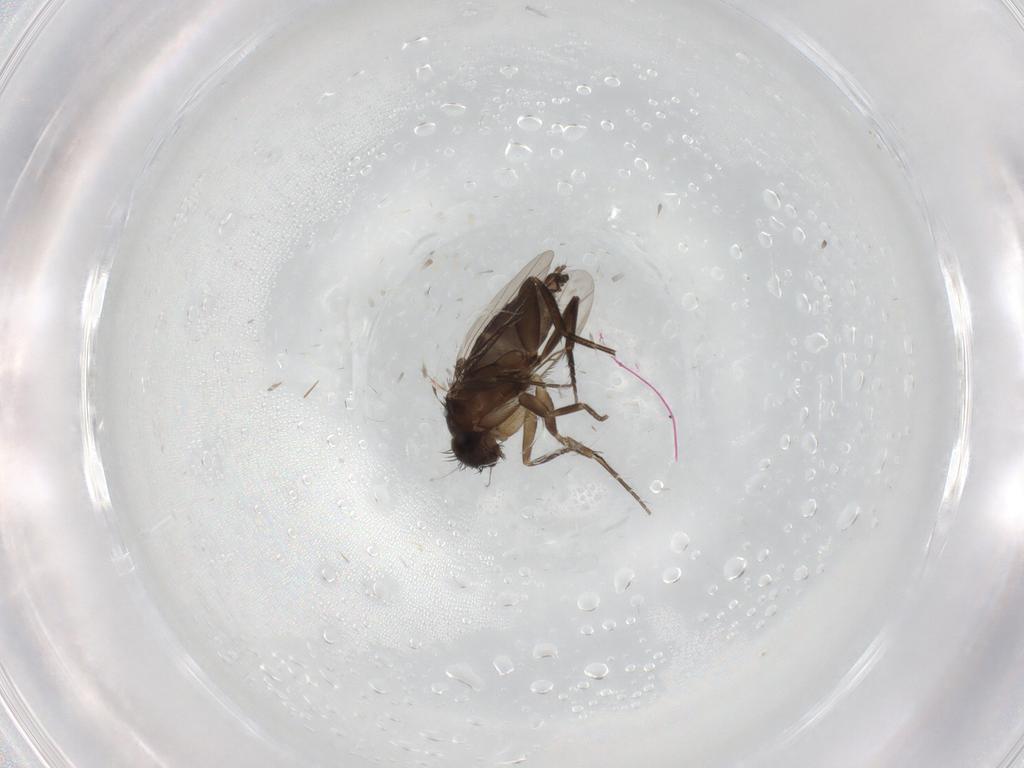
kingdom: Animalia
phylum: Arthropoda
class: Insecta
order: Diptera
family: Phoridae
